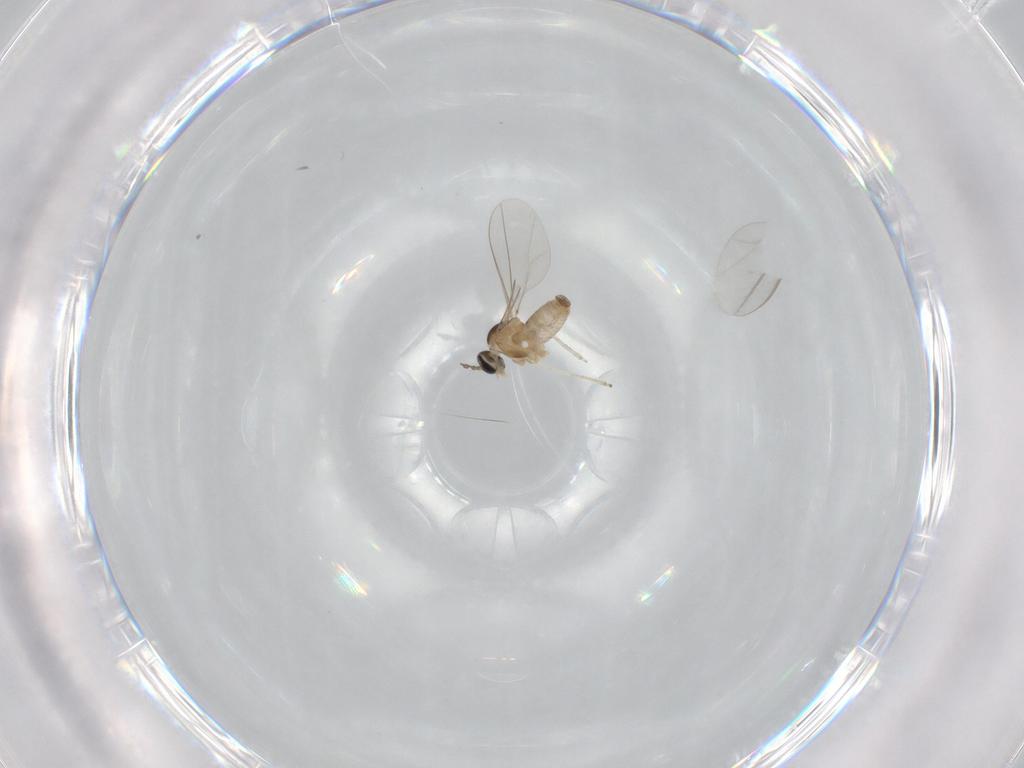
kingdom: Animalia
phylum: Arthropoda
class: Insecta
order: Diptera
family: Cecidomyiidae
